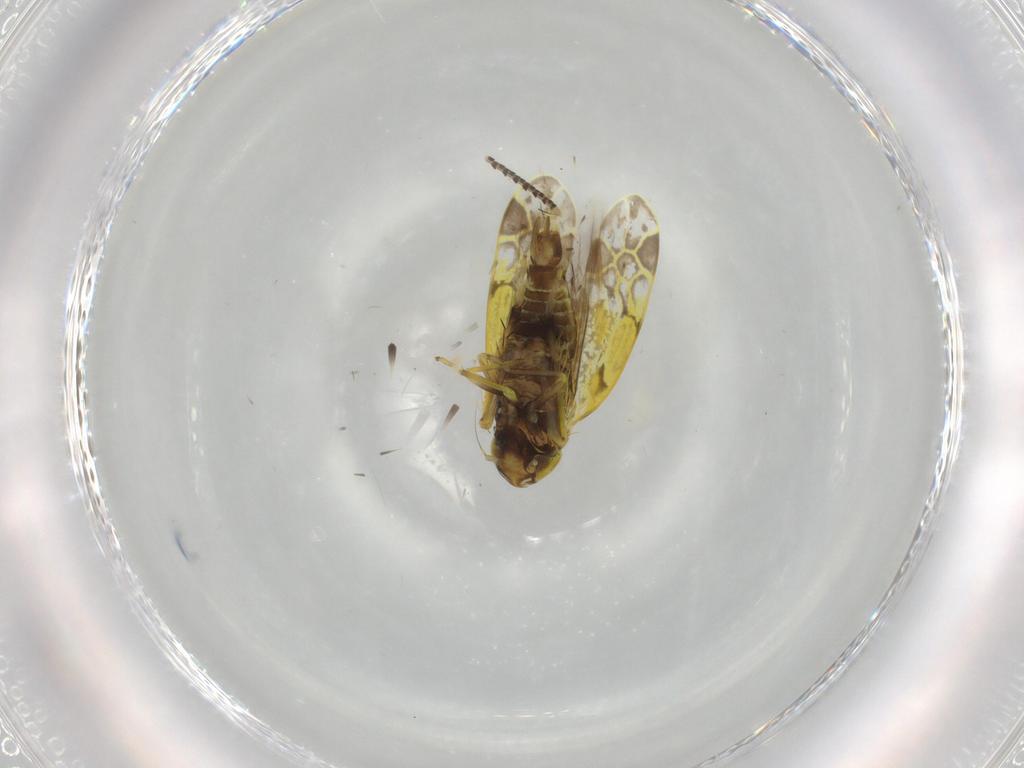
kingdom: Animalia
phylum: Arthropoda
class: Insecta
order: Hemiptera
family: Cicadellidae
